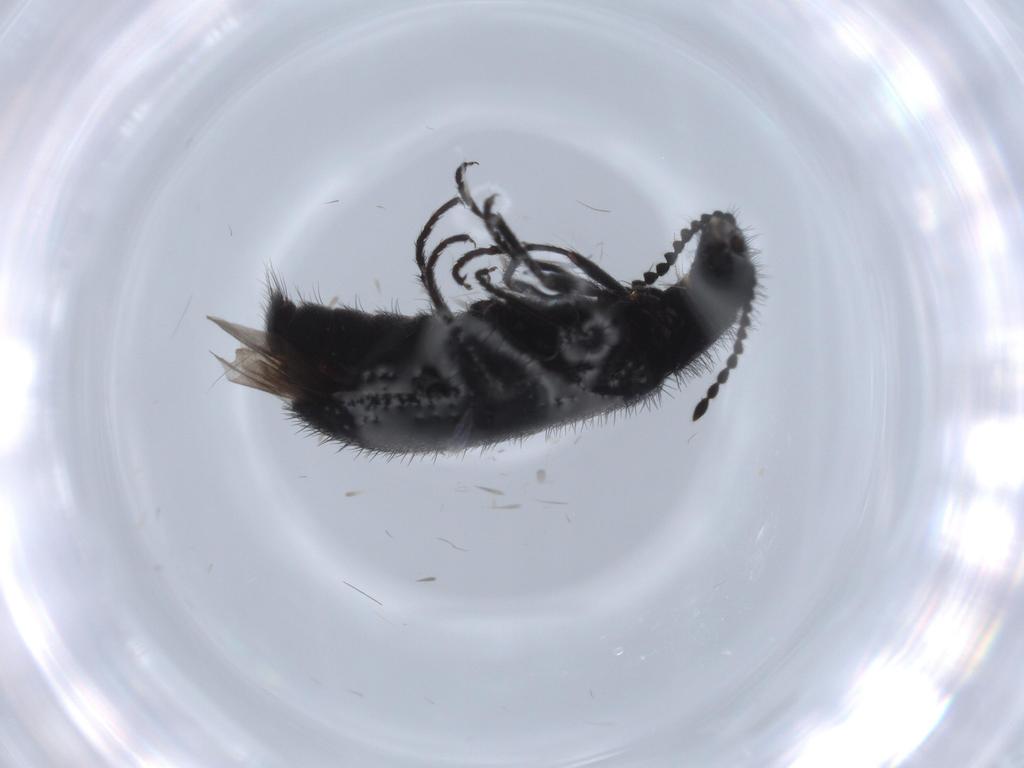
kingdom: Animalia
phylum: Arthropoda
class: Insecta
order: Coleoptera
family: Melyridae
